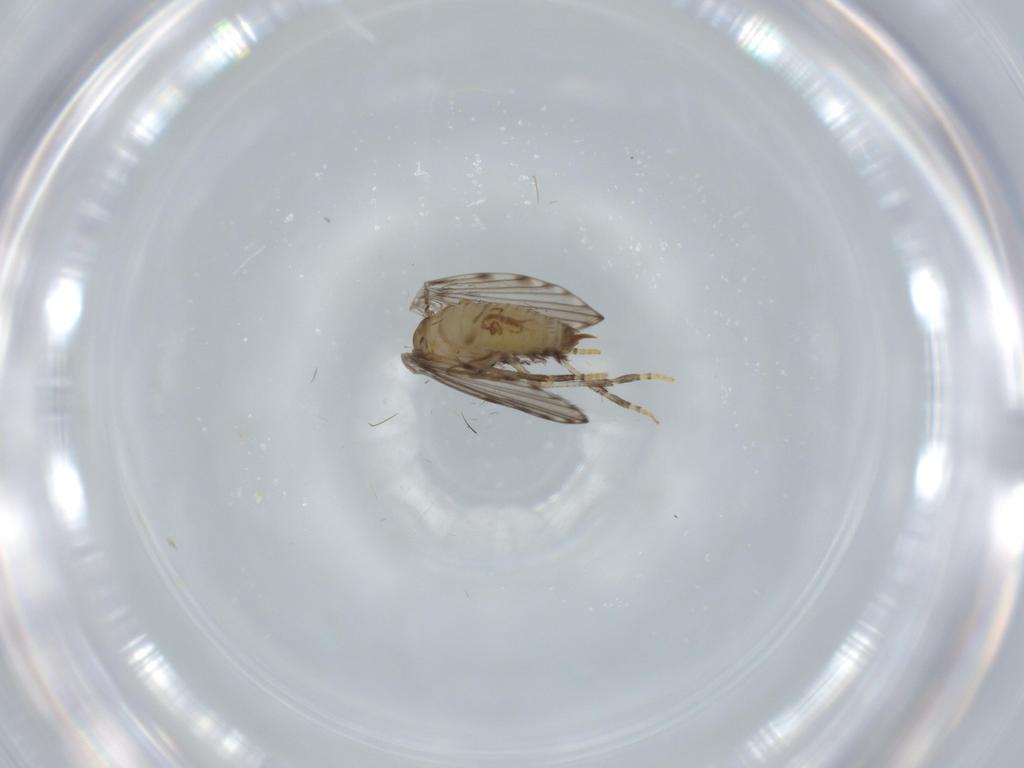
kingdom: Animalia
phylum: Arthropoda
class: Insecta
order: Diptera
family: Cecidomyiidae
